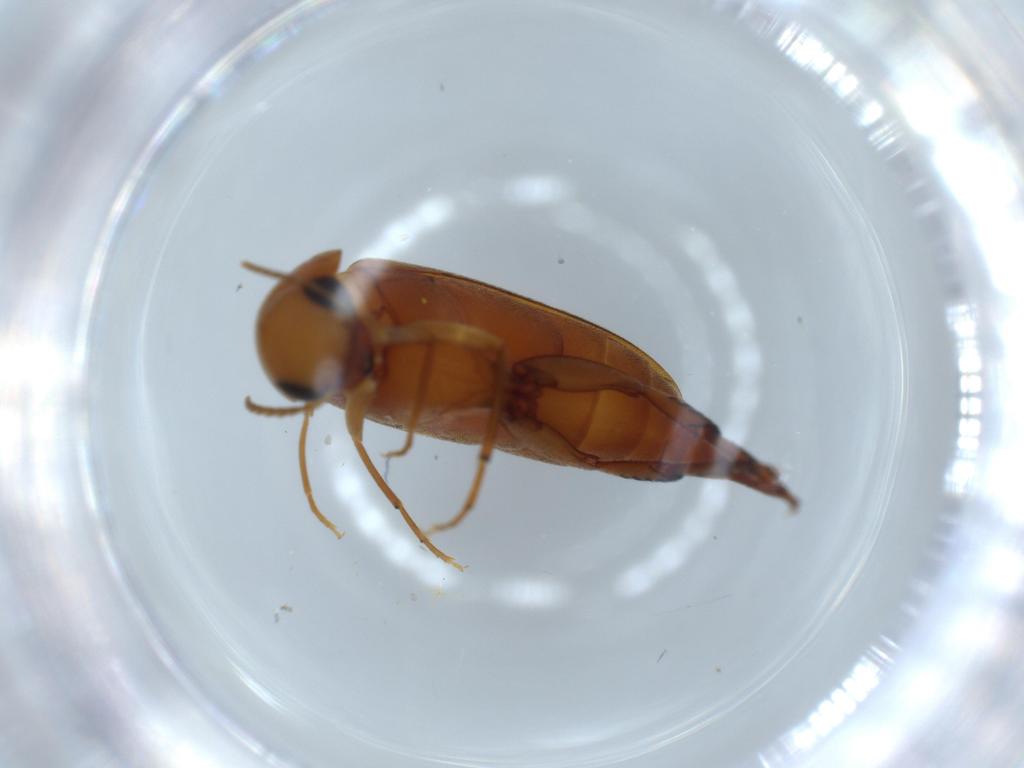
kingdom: Animalia
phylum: Arthropoda
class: Insecta
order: Coleoptera
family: Mordellidae
